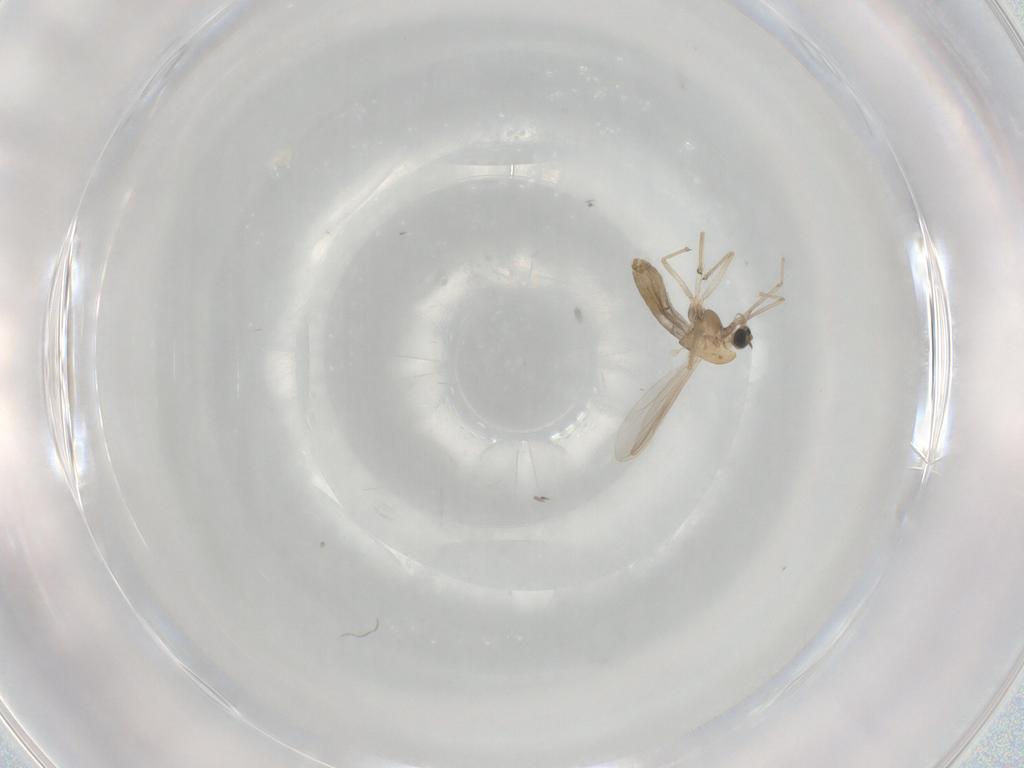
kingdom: Animalia
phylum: Arthropoda
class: Insecta
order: Diptera
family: Chironomidae
